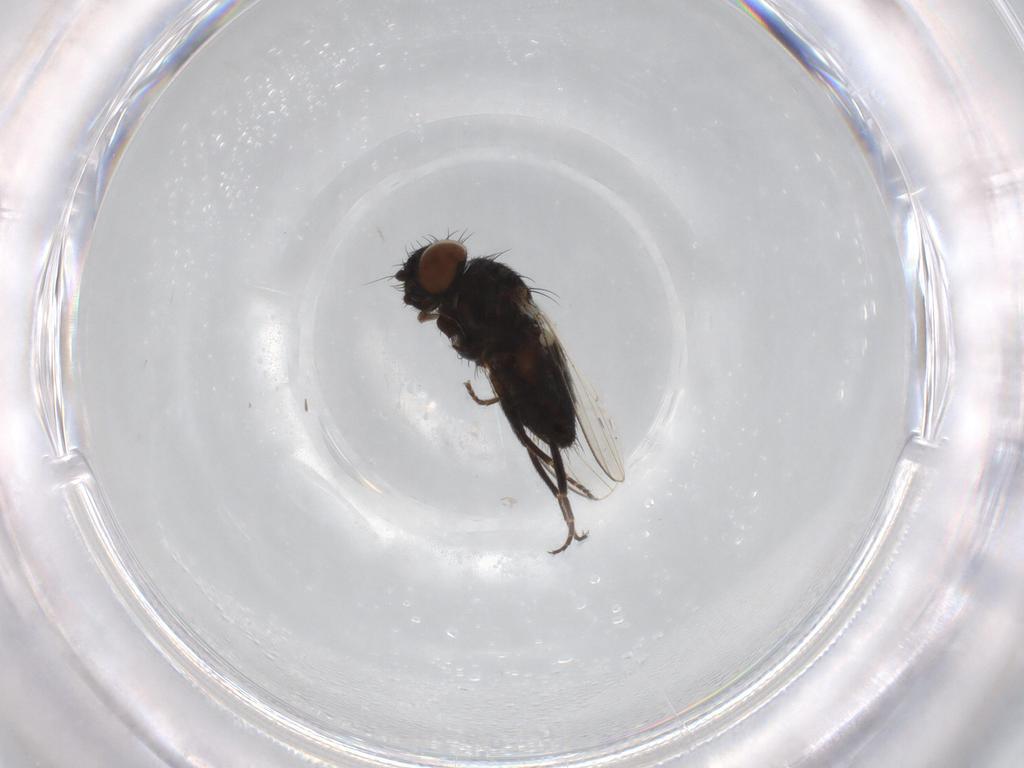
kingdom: Animalia
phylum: Arthropoda
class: Insecta
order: Diptera
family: Milichiidae
